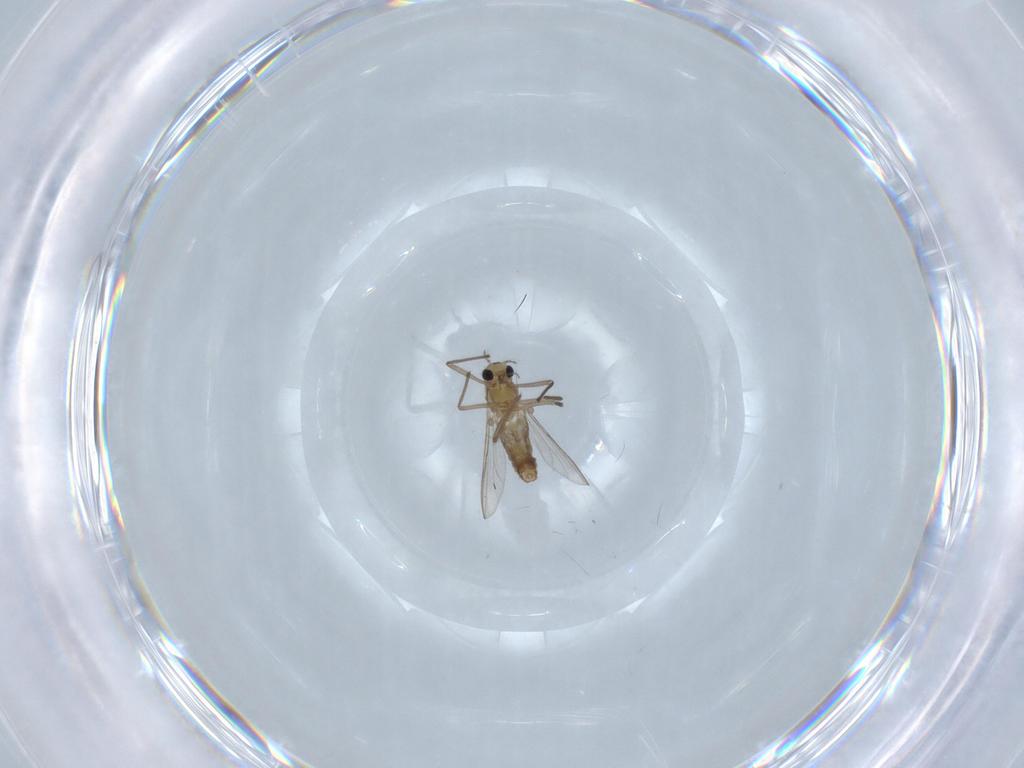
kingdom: Animalia
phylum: Arthropoda
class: Insecta
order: Diptera
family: Chironomidae
